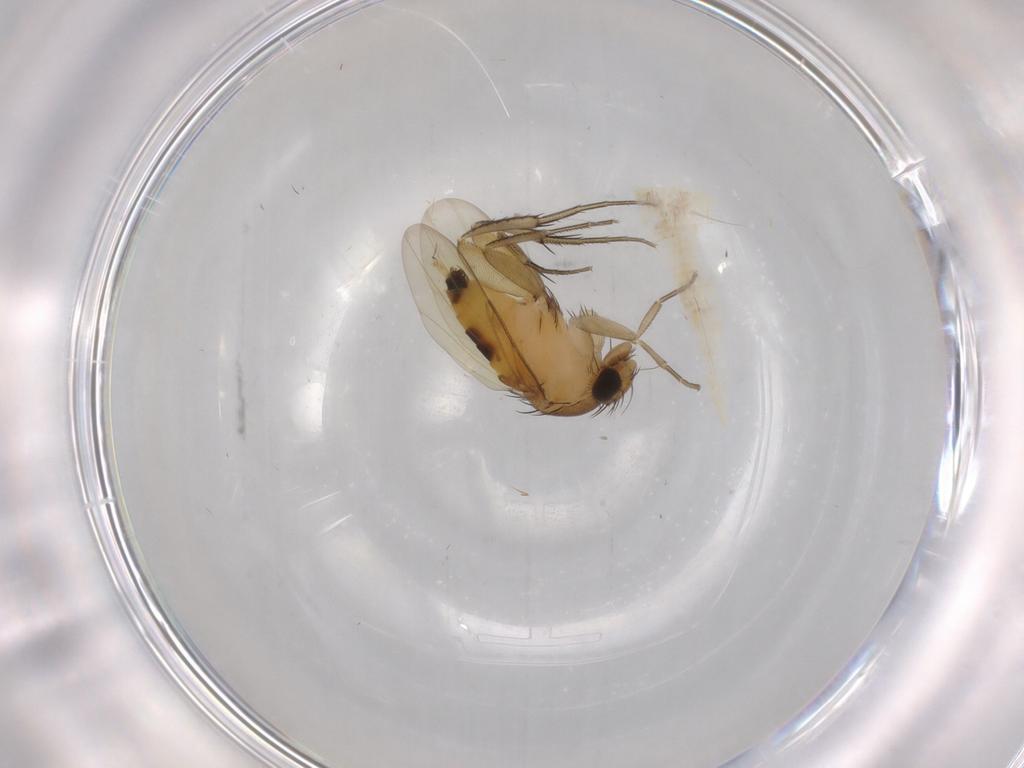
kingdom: Animalia
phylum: Arthropoda
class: Insecta
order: Diptera
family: Phoridae
